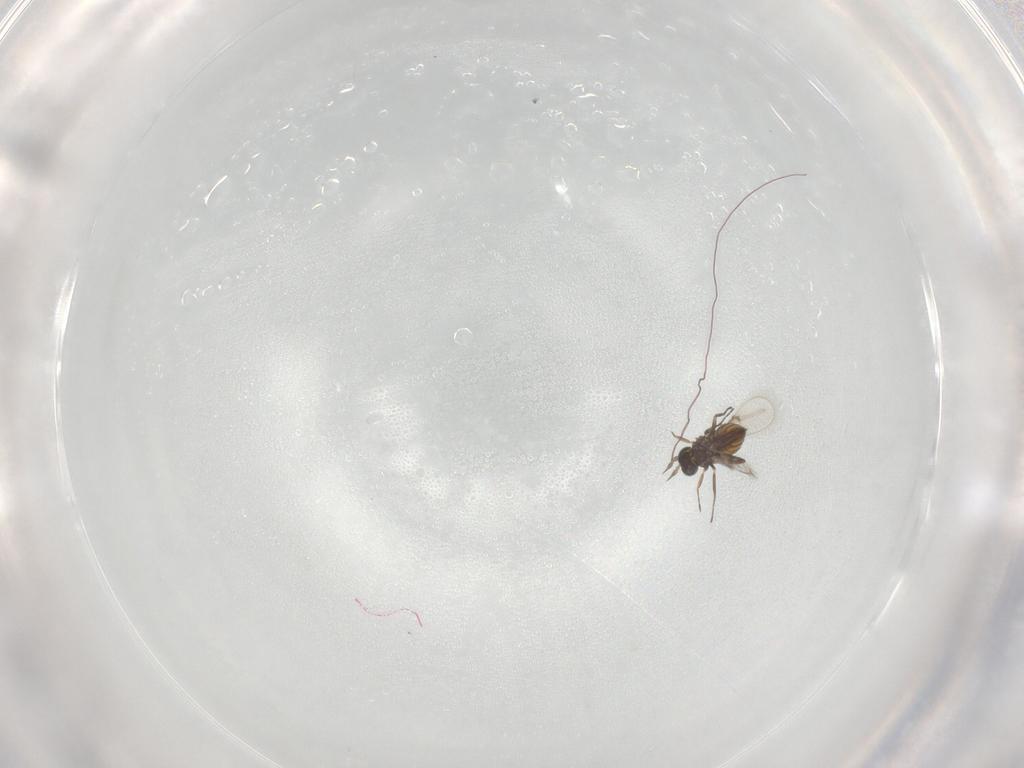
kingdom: Animalia
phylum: Arthropoda
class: Insecta
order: Hymenoptera
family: Trichogrammatidae
